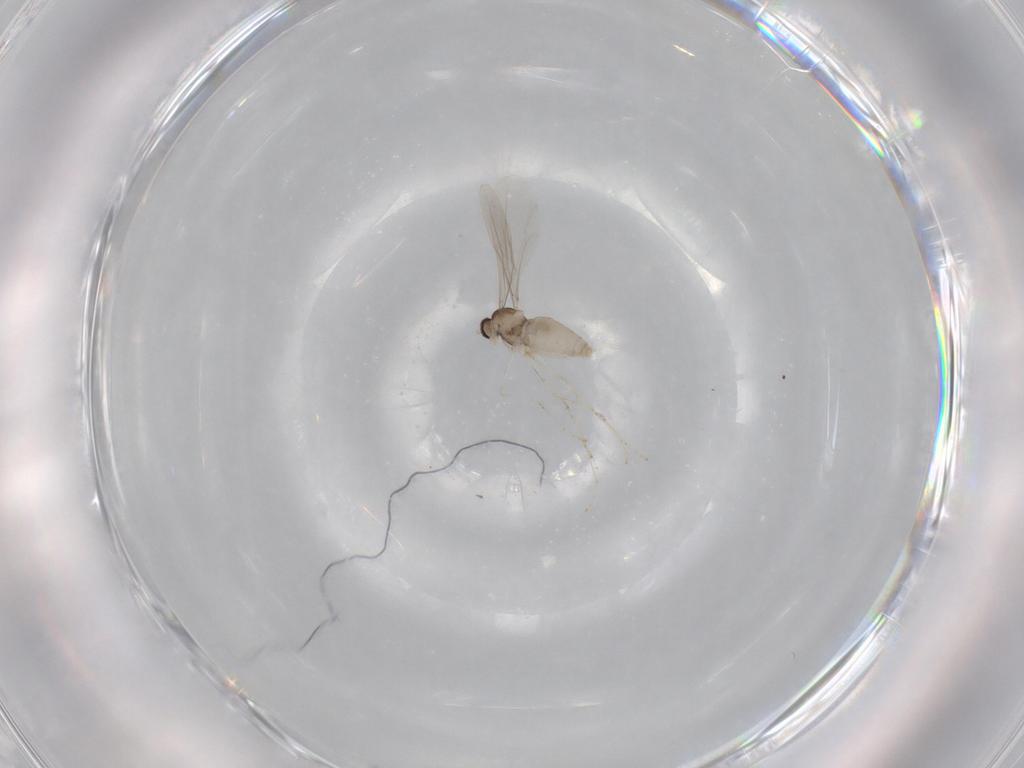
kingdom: Animalia
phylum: Arthropoda
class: Insecta
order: Diptera
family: Cecidomyiidae
